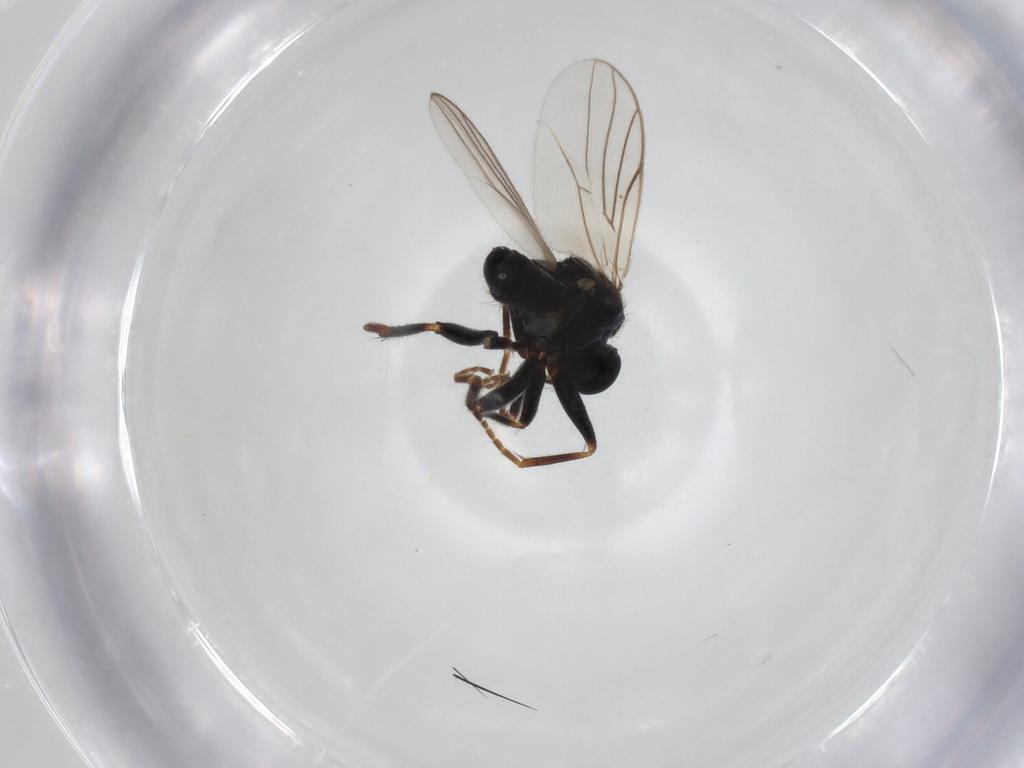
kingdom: Animalia
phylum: Arthropoda
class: Insecta
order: Diptera
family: Hybotidae
